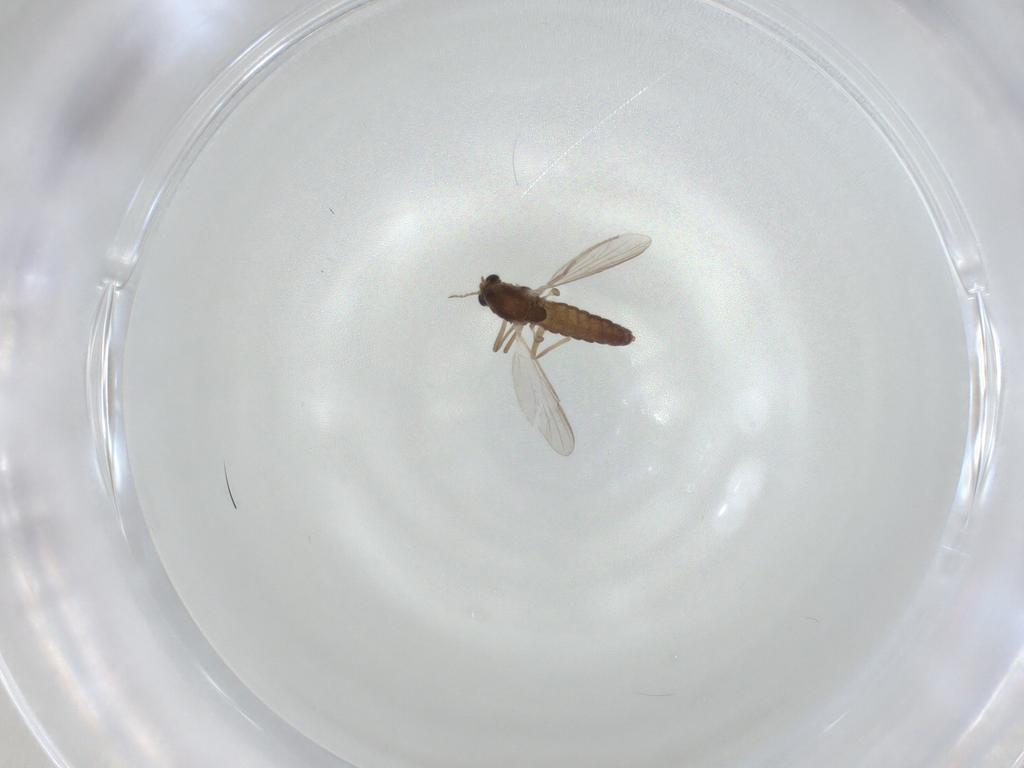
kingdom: Animalia
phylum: Arthropoda
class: Insecta
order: Diptera
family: Chironomidae
